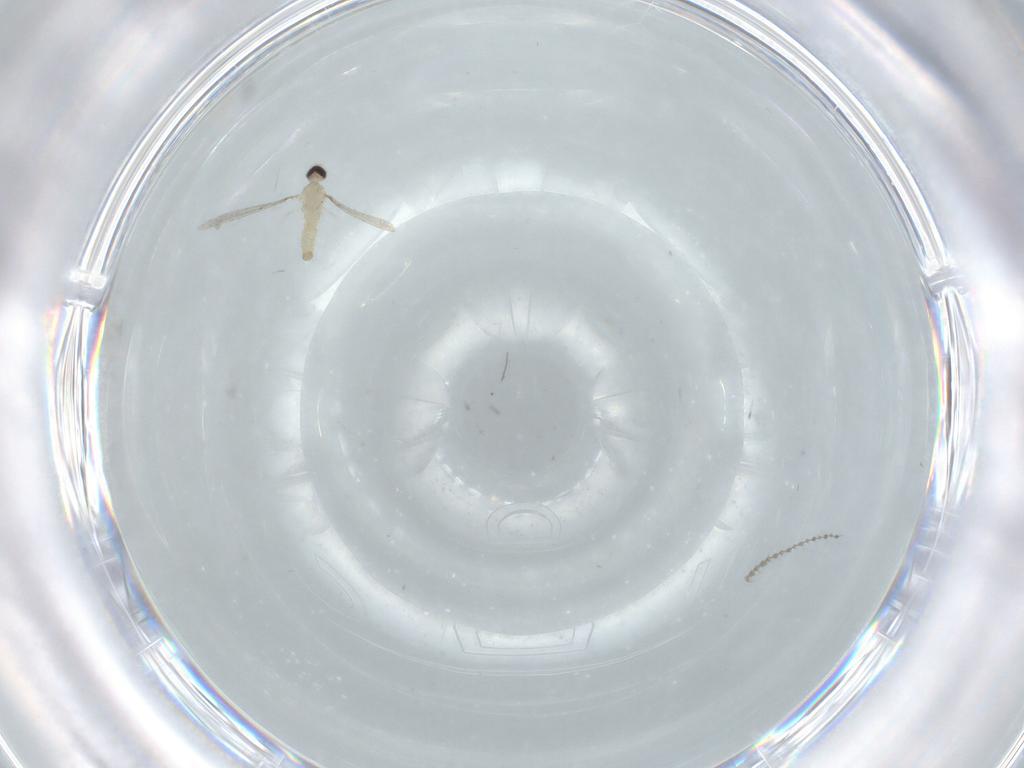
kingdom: Animalia
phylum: Arthropoda
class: Insecta
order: Diptera
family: Cecidomyiidae
